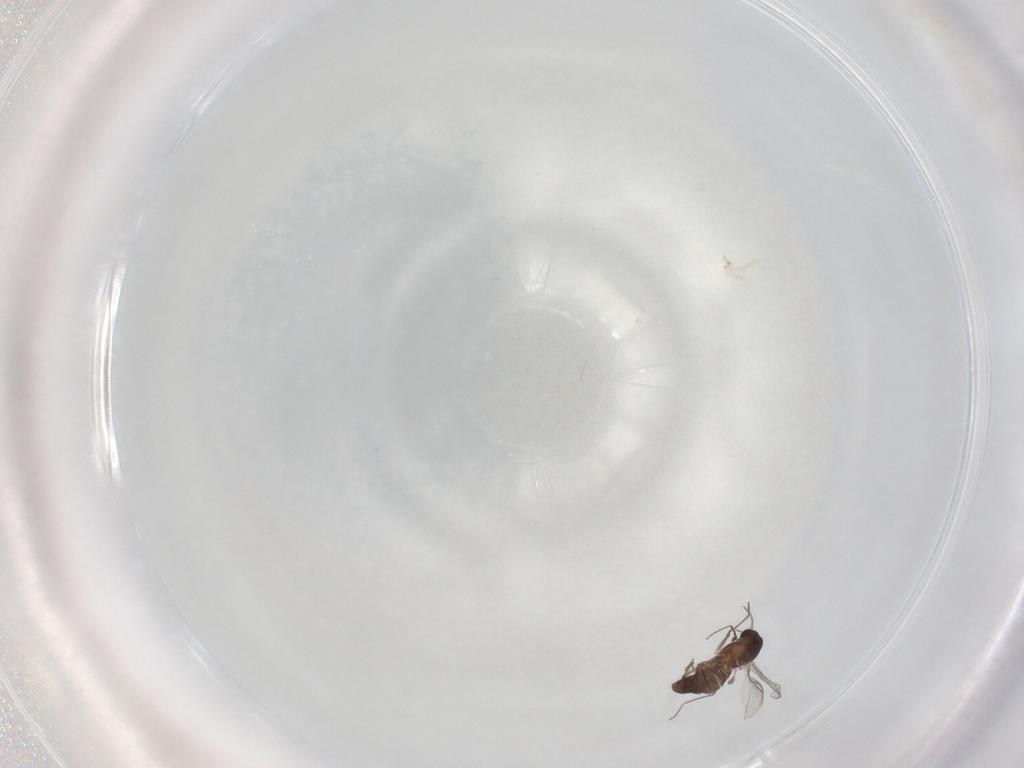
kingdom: Animalia
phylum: Arthropoda
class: Insecta
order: Diptera
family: Chironomidae
